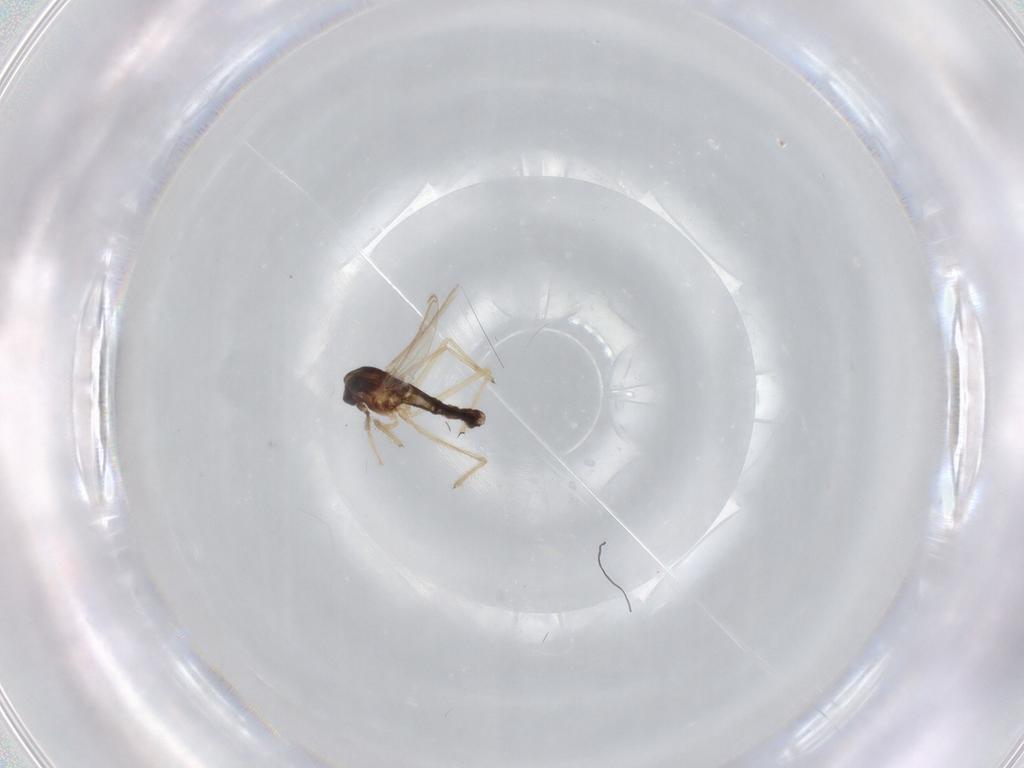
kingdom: Animalia
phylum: Arthropoda
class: Insecta
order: Diptera
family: Chironomidae
